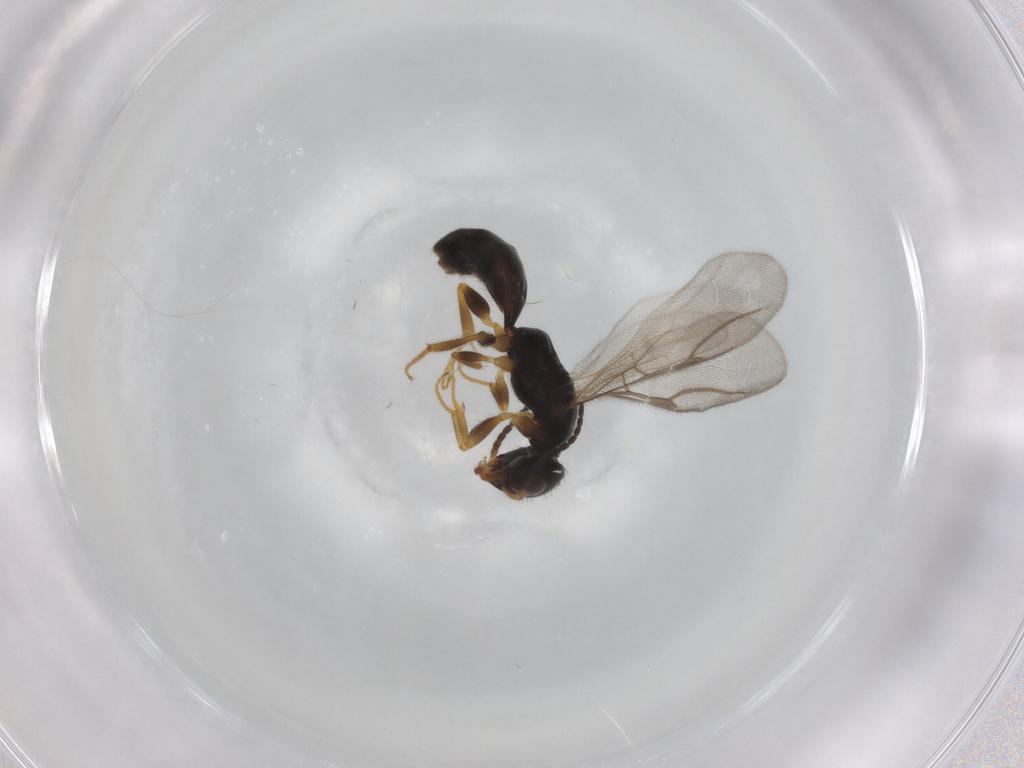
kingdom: Animalia
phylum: Arthropoda
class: Insecta
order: Hymenoptera
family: Bethylidae
